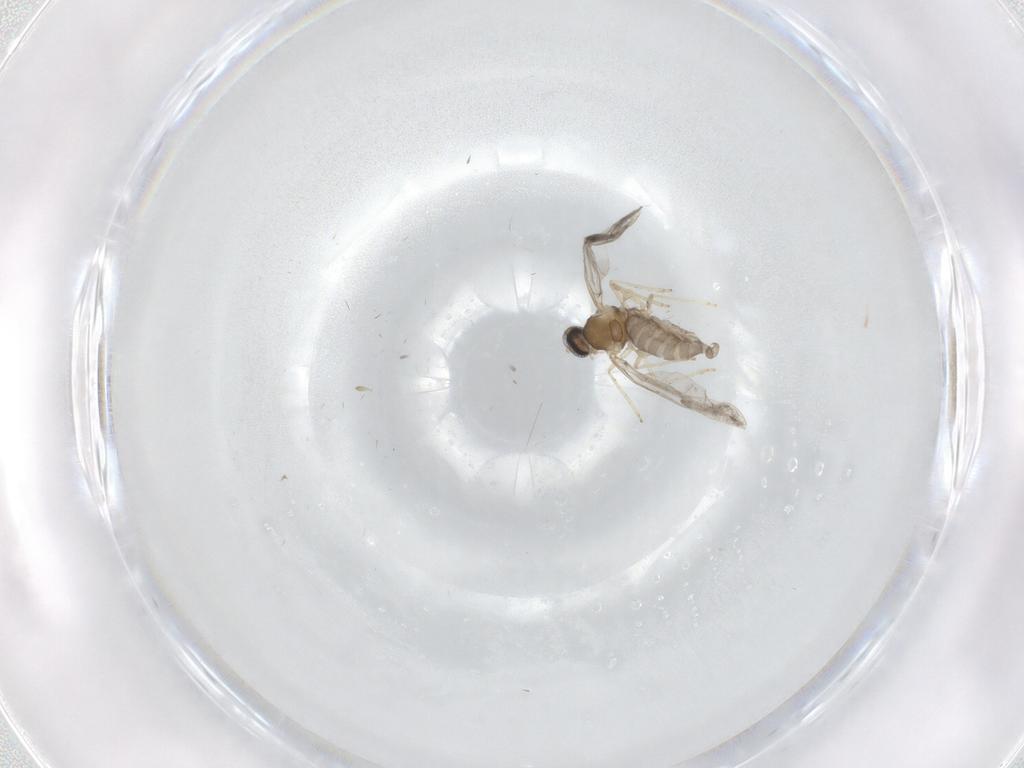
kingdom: Animalia
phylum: Arthropoda
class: Insecta
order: Diptera
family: Cecidomyiidae
